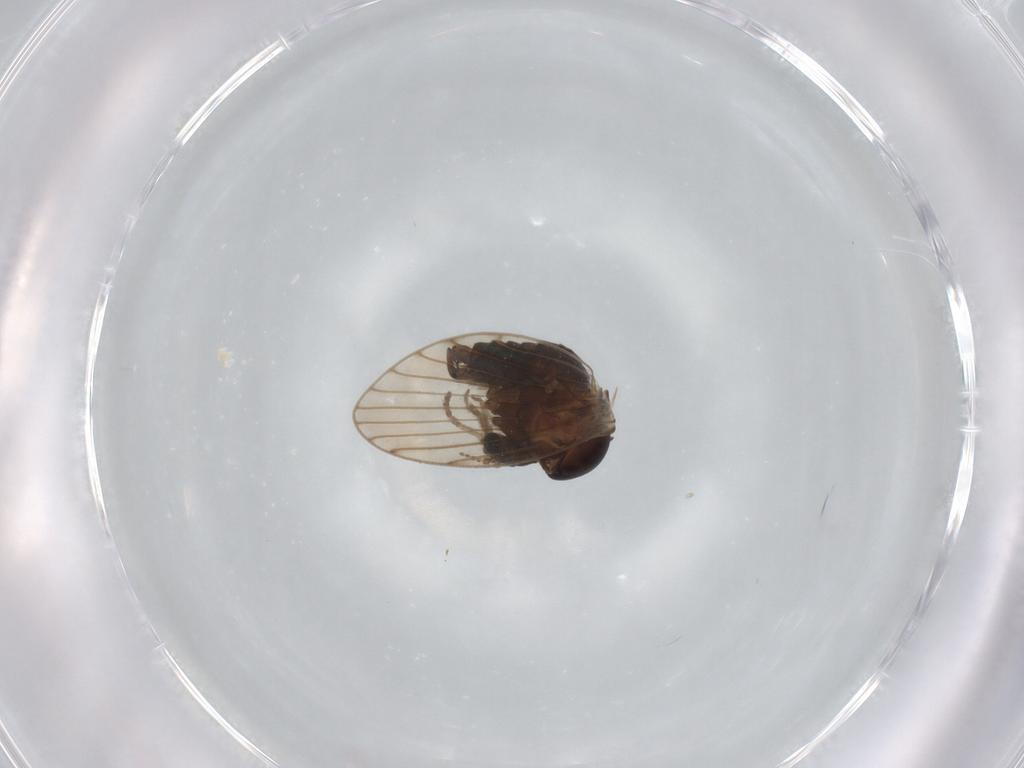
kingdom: Animalia
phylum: Arthropoda
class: Insecta
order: Diptera
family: Psychodidae
